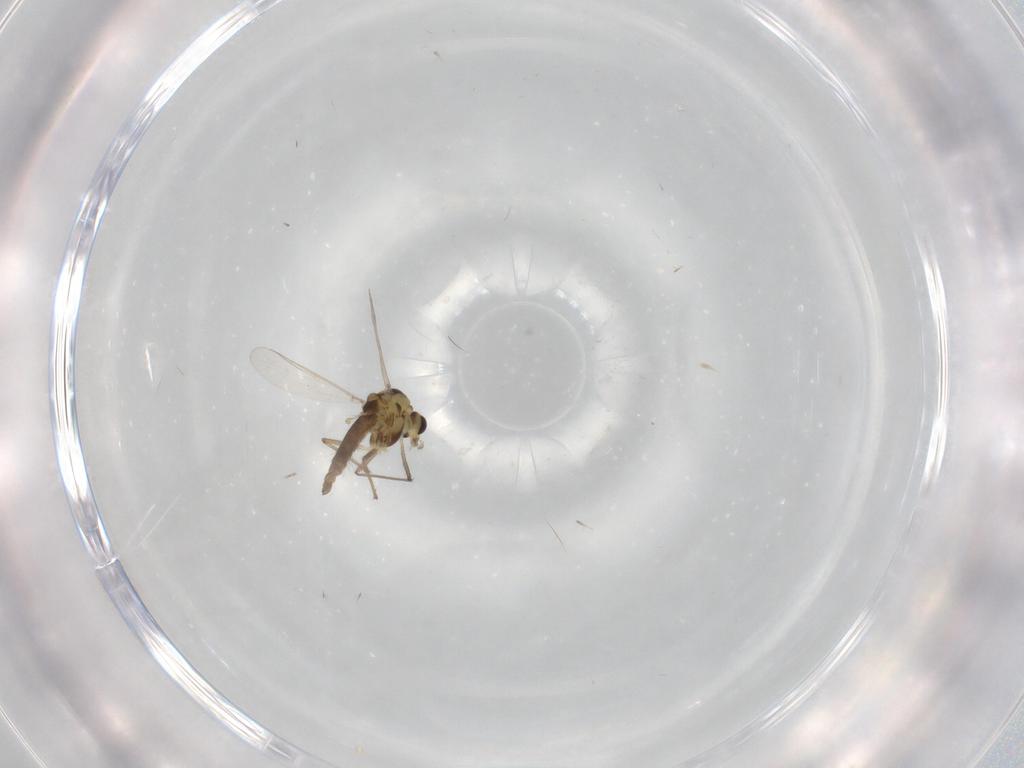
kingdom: Animalia
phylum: Arthropoda
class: Insecta
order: Diptera
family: Chironomidae
